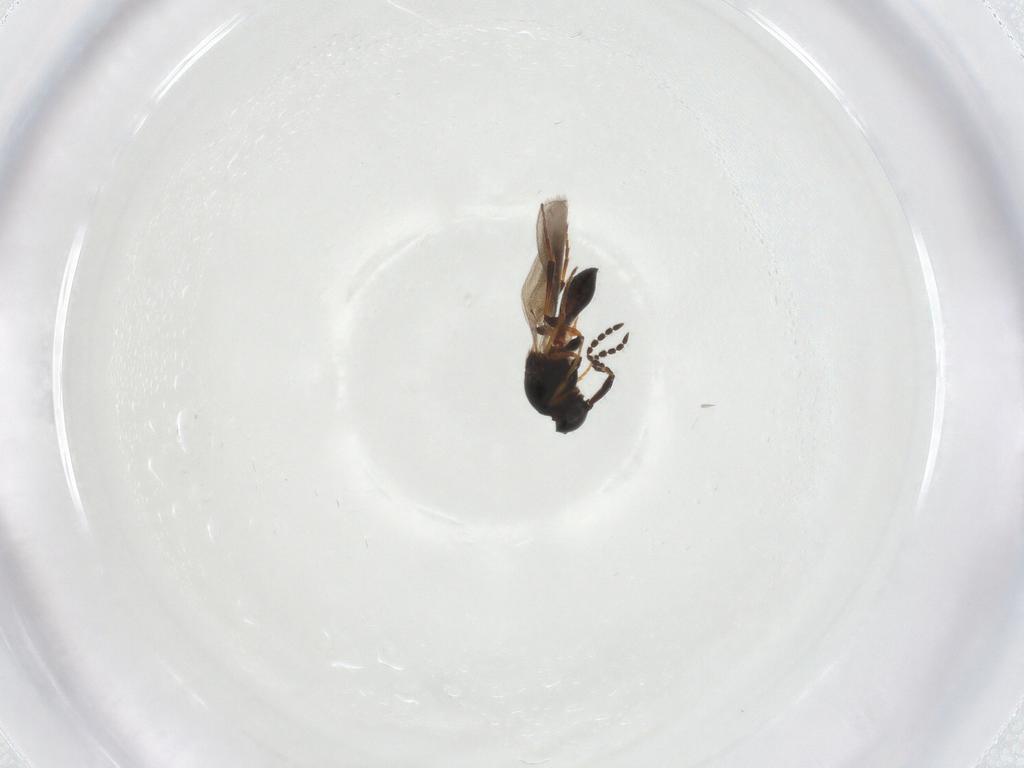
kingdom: Animalia
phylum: Arthropoda
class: Insecta
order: Hymenoptera
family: Platygastridae
